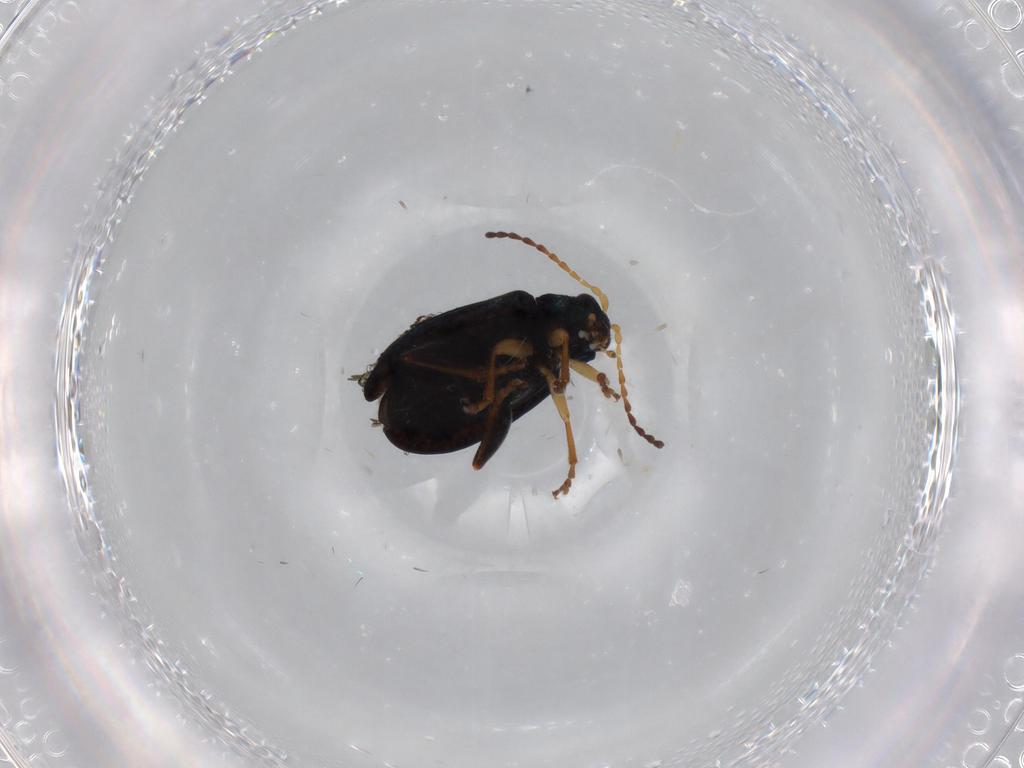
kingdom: Animalia
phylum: Arthropoda
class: Insecta
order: Coleoptera
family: Chrysomelidae
